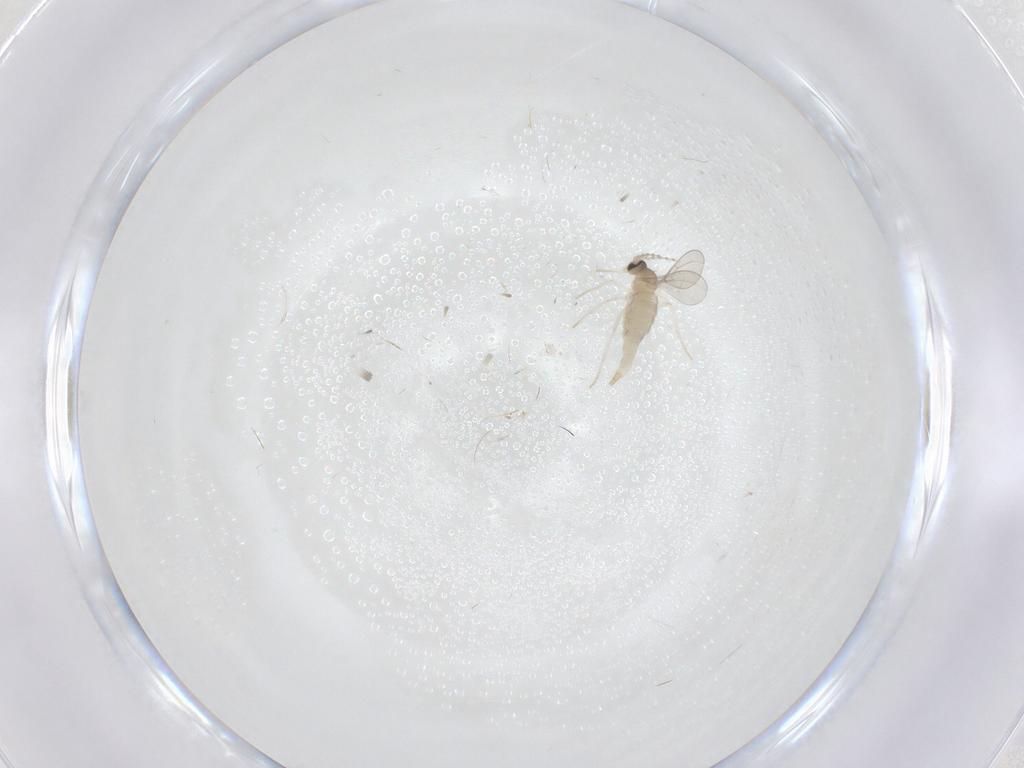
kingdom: Animalia
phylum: Arthropoda
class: Insecta
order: Diptera
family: Cecidomyiidae
